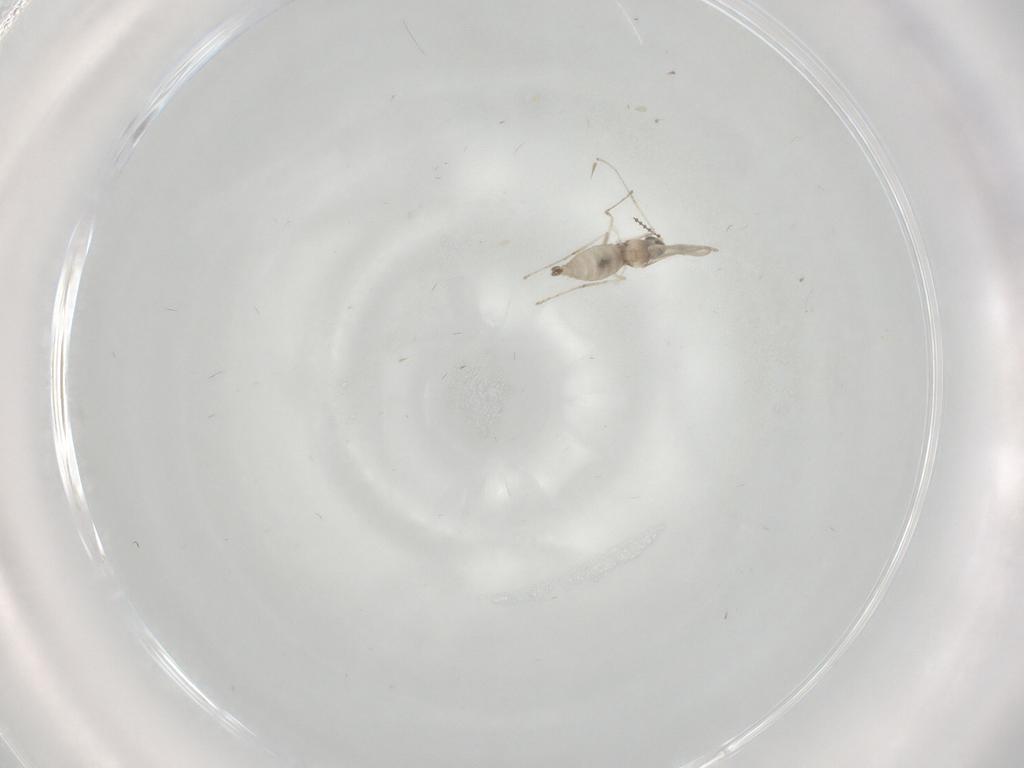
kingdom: Animalia
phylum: Arthropoda
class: Insecta
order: Diptera
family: Cecidomyiidae
